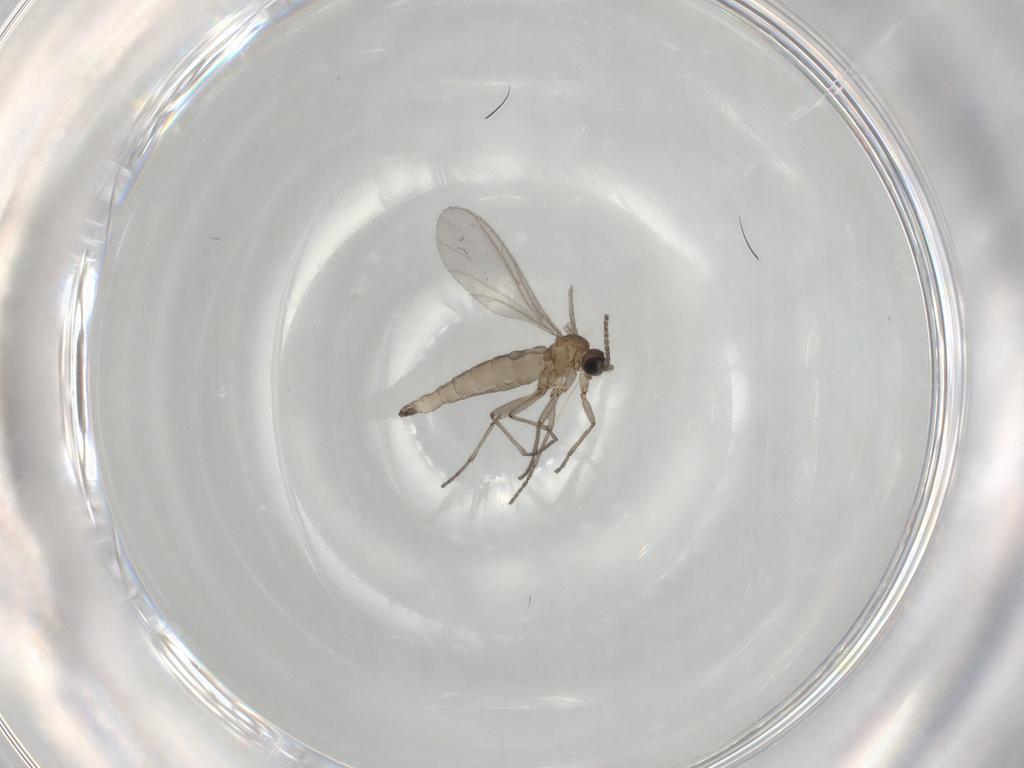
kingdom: Animalia
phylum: Arthropoda
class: Insecta
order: Diptera
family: Sciaridae
